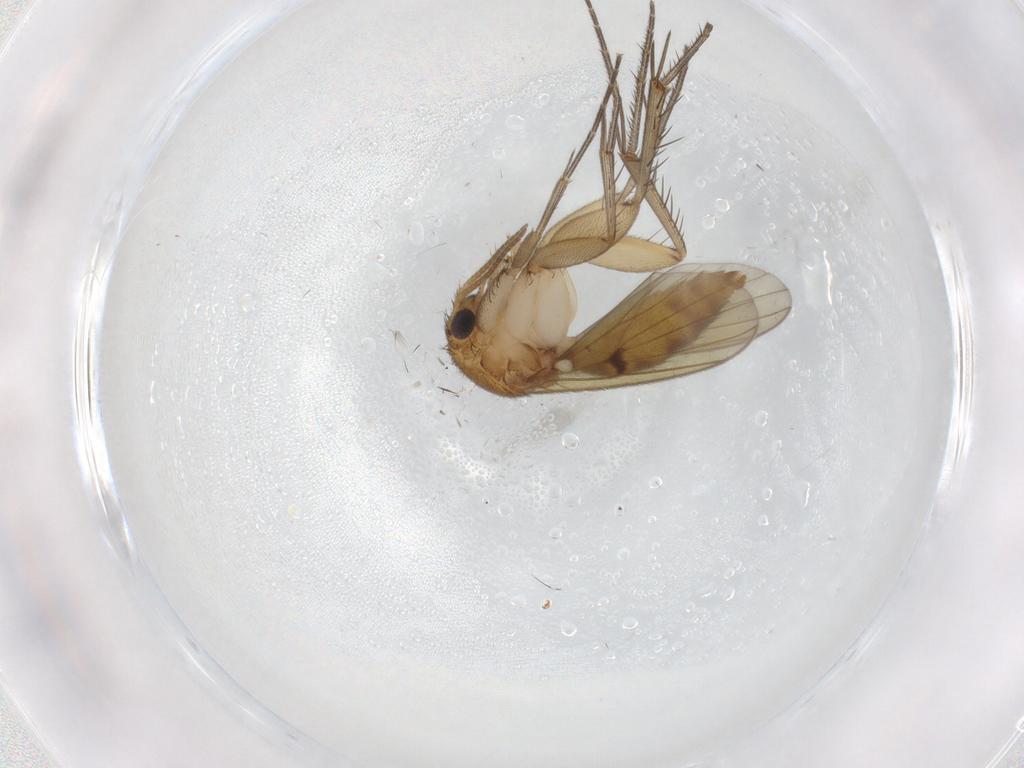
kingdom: Animalia
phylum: Arthropoda
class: Insecta
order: Diptera
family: Mycetophilidae
